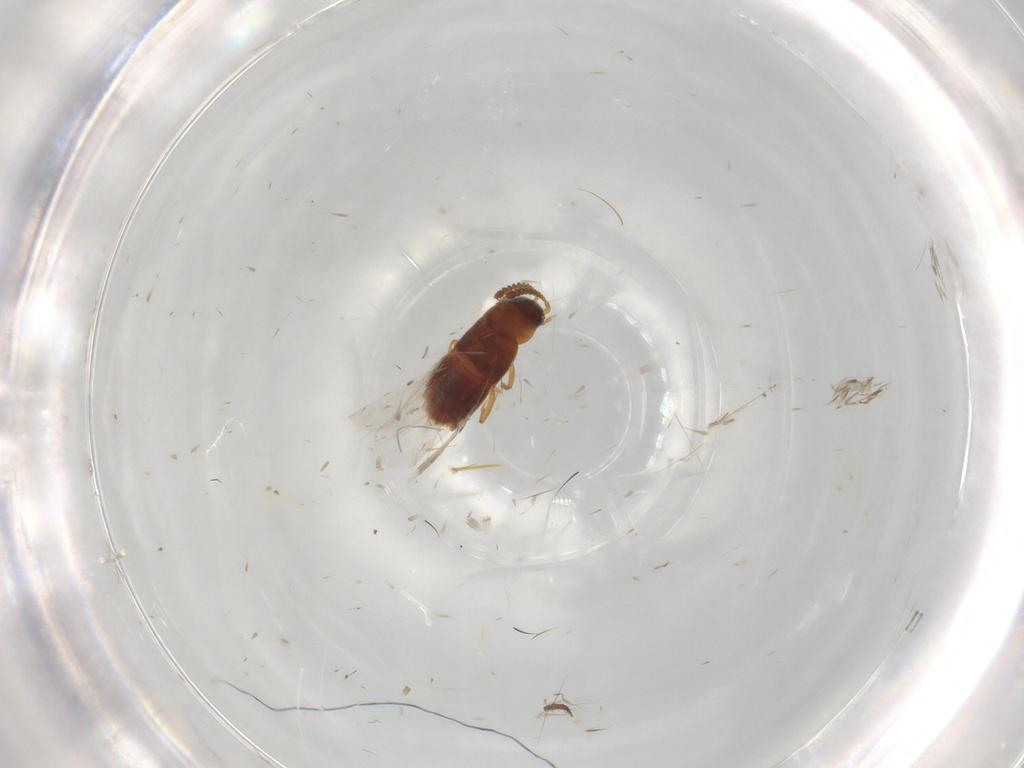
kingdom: Animalia
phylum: Arthropoda
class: Insecta
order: Coleoptera
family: Staphylinidae
